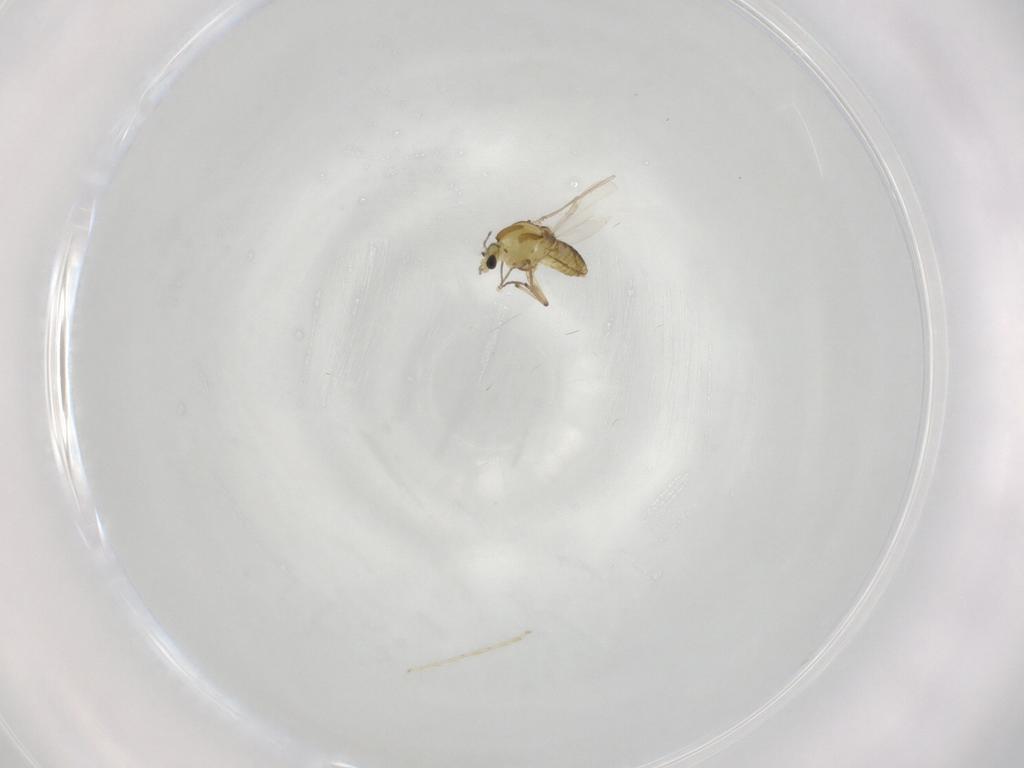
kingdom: Animalia
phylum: Arthropoda
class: Insecta
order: Diptera
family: Chironomidae
